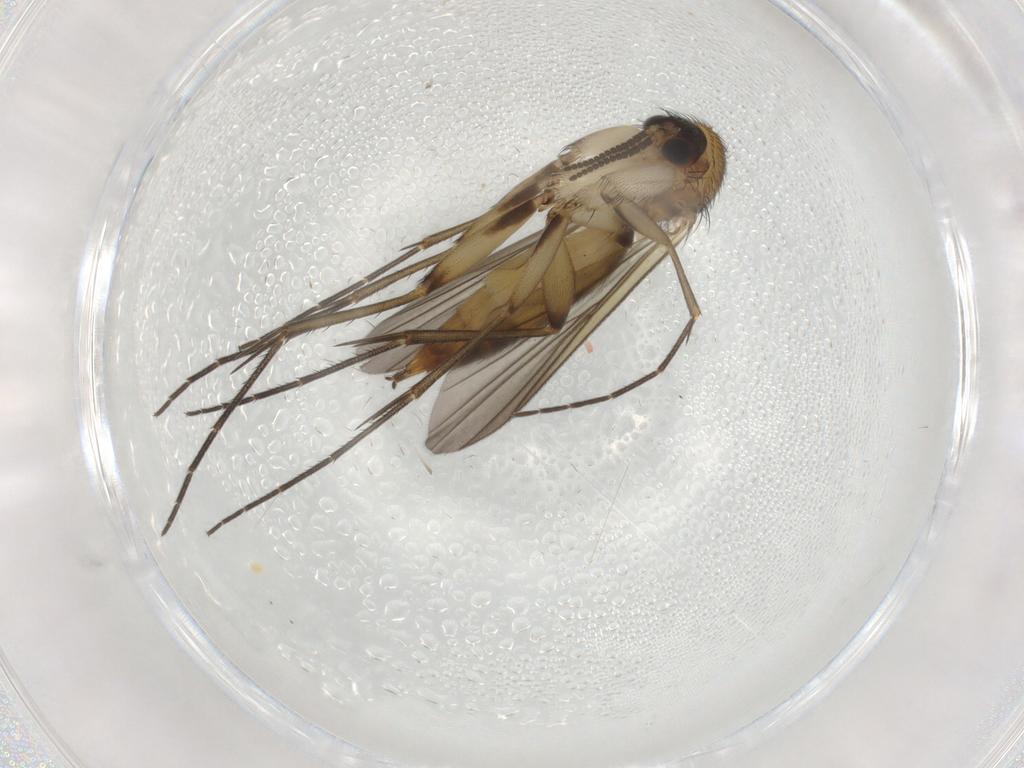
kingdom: Animalia
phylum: Arthropoda
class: Insecta
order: Diptera
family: Mycetophilidae
